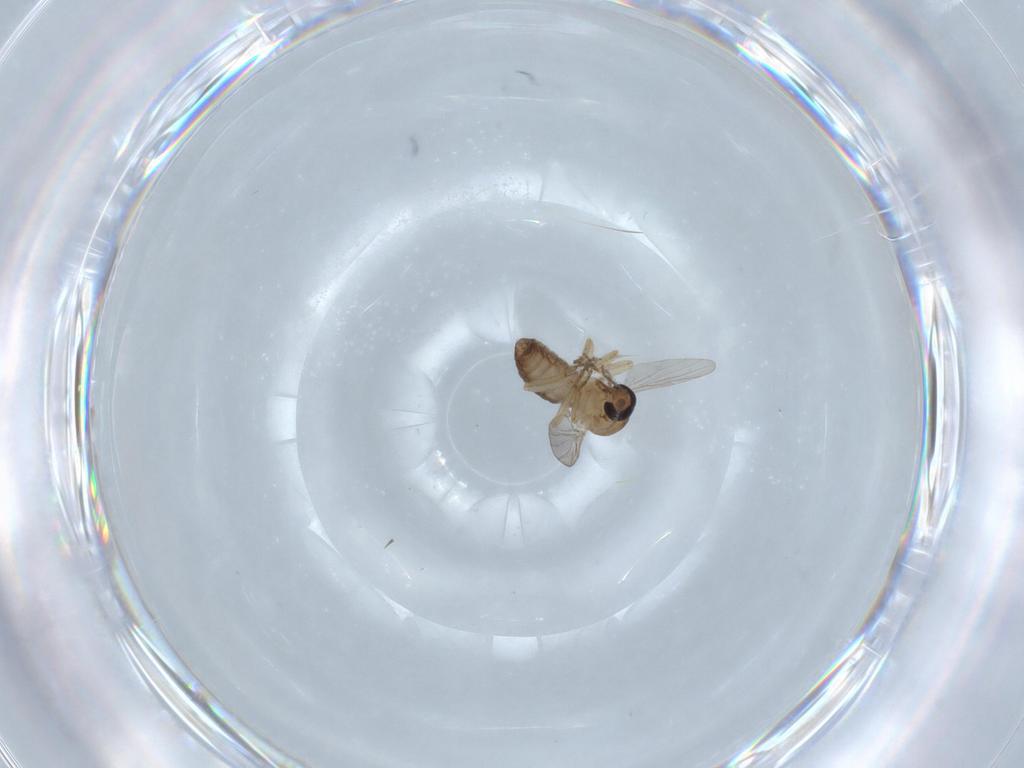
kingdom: Animalia
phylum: Arthropoda
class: Insecta
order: Diptera
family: Ceratopogonidae
